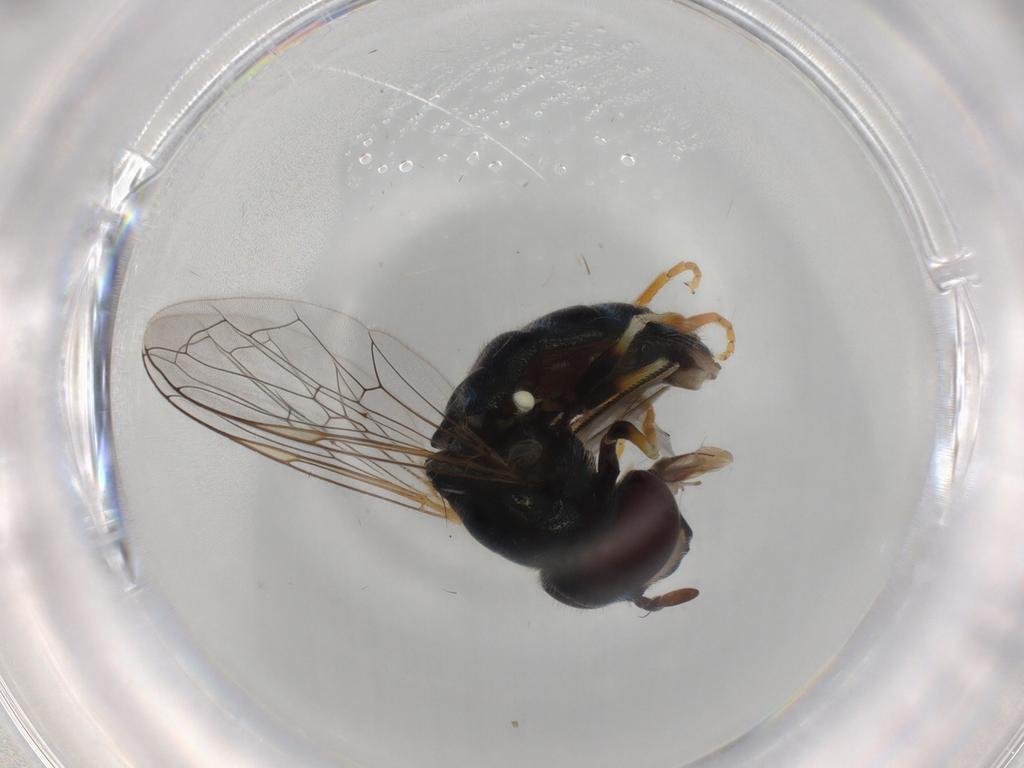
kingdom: Animalia
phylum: Arthropoda
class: Insecta
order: Diptera
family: Syrphidae
